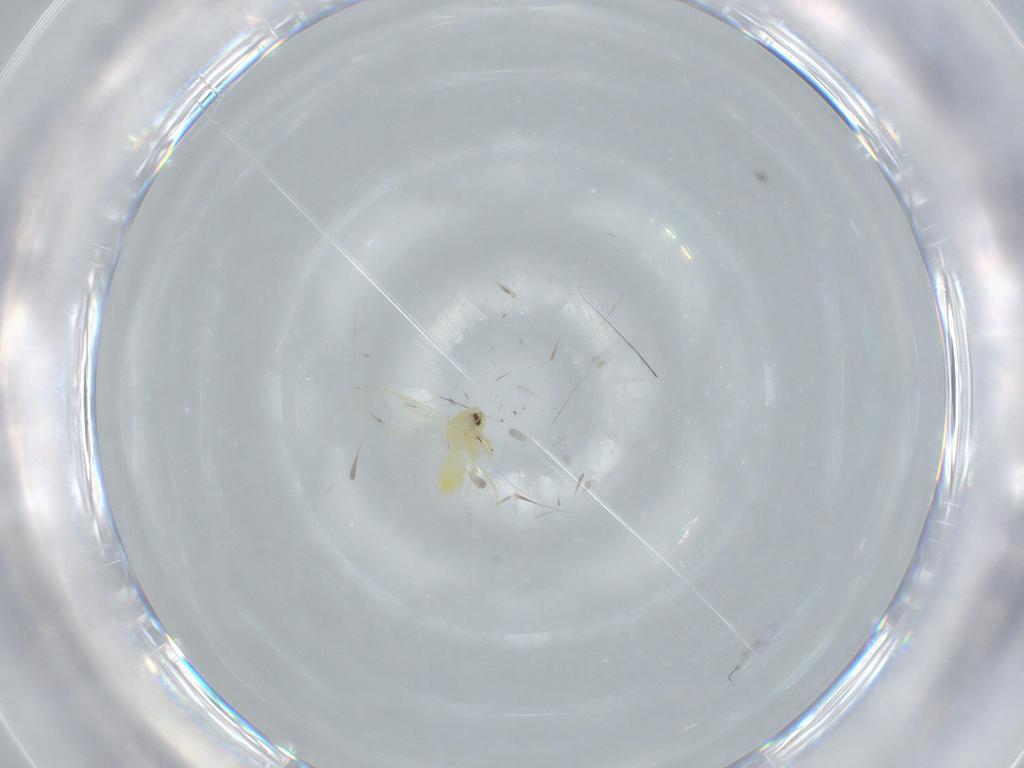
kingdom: Animalia
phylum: Arthropoda
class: Insecta
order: Hemiptera
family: Aleyrodidae
